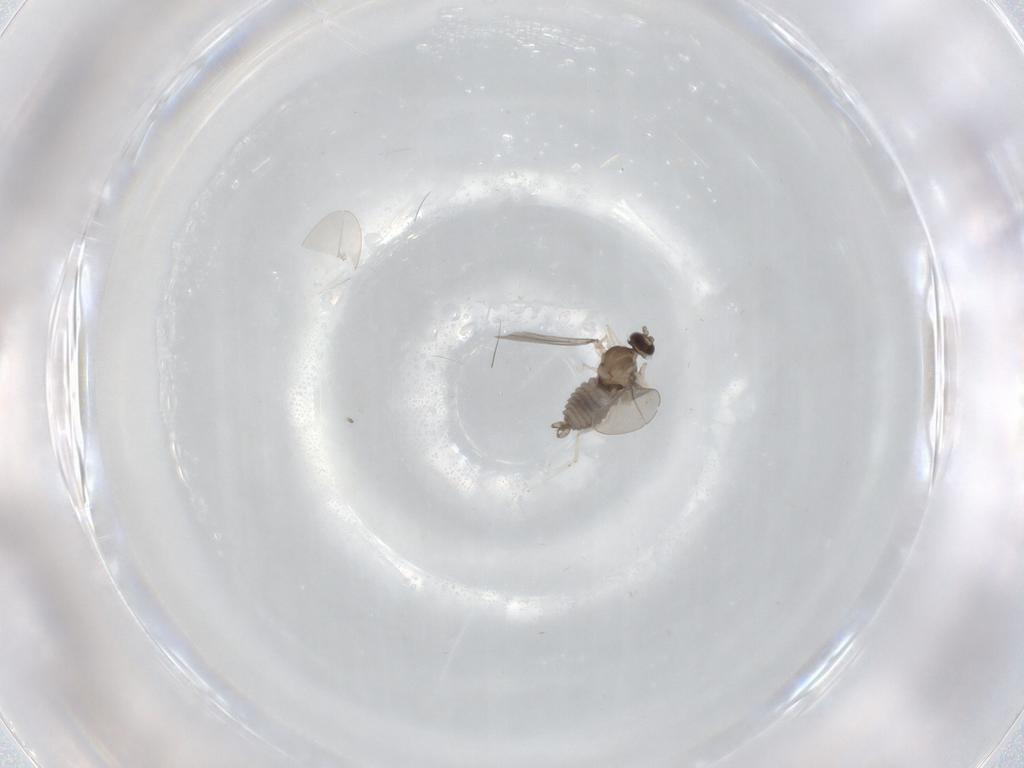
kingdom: Animalia
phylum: Arthropoda
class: Insecta
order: Diptera
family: Cecidomyiidae
